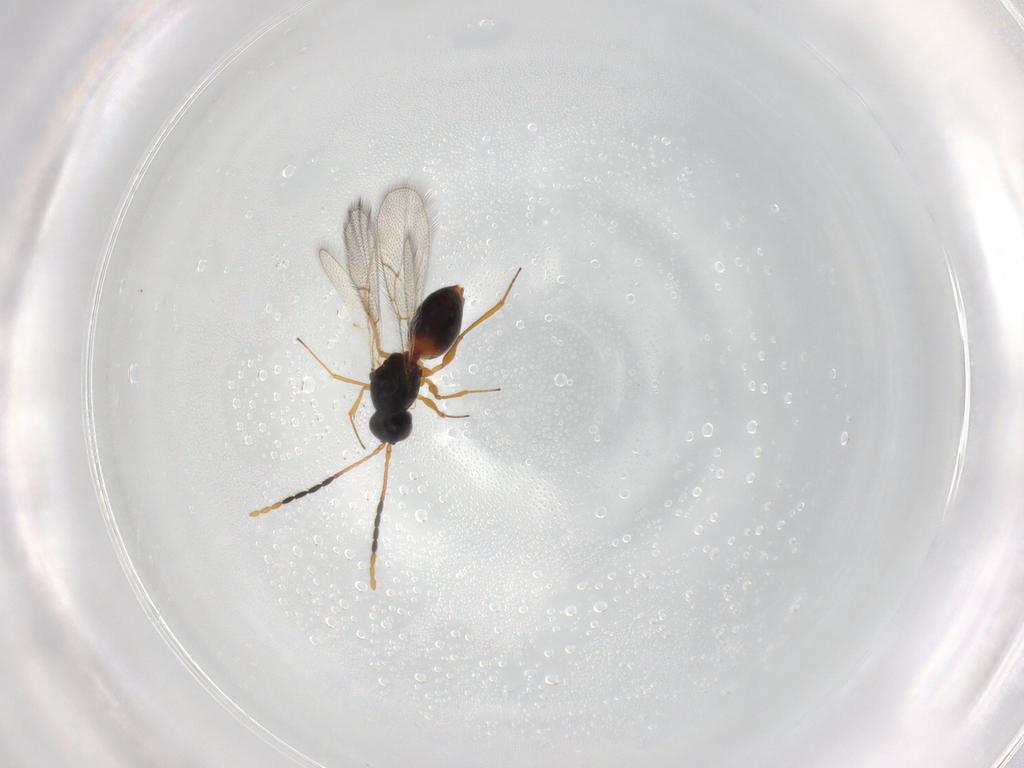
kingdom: Animalia
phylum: Arthropoda
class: Insecta
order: Hymenoptera
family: Figitidae
